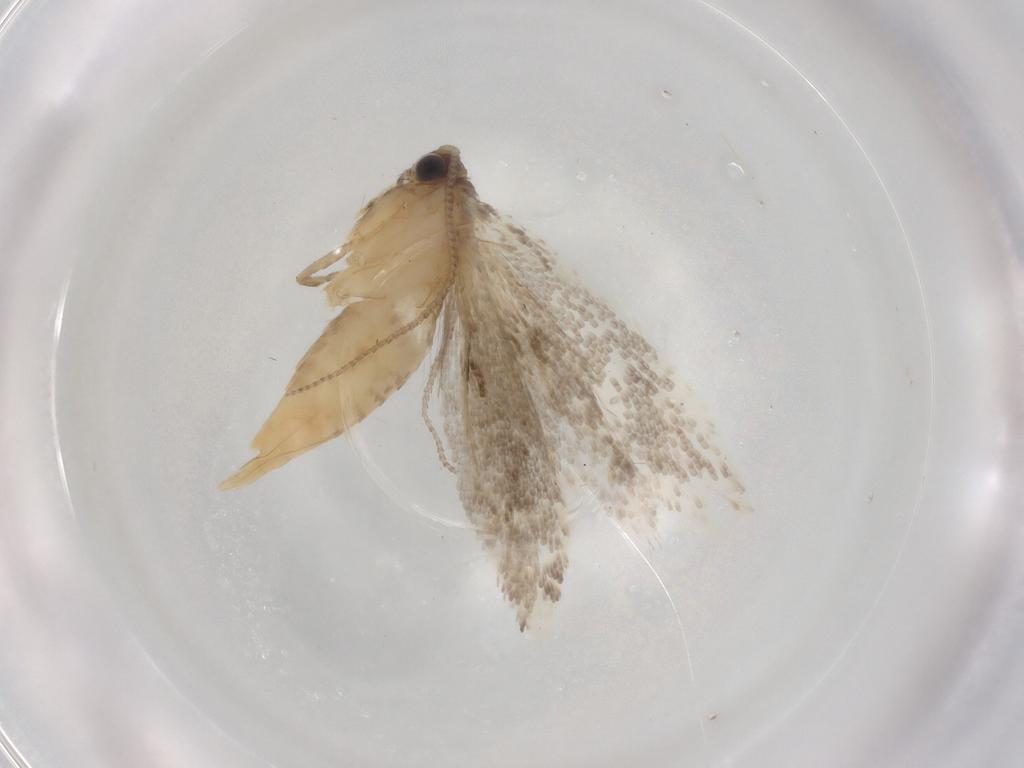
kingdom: Animalia
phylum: Arthropoda
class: Insecta
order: Lepidoptera
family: Tineidae
